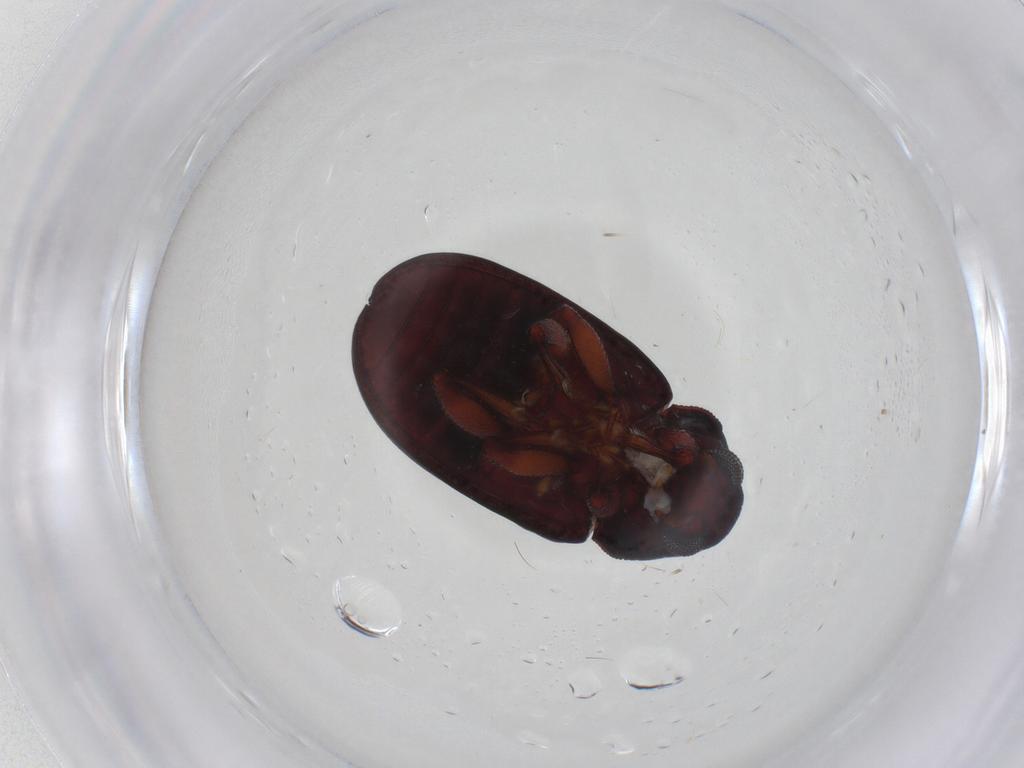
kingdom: Animalia
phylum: Arthropoda
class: Insecta
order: Coleoptera
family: Chrysomelidae
